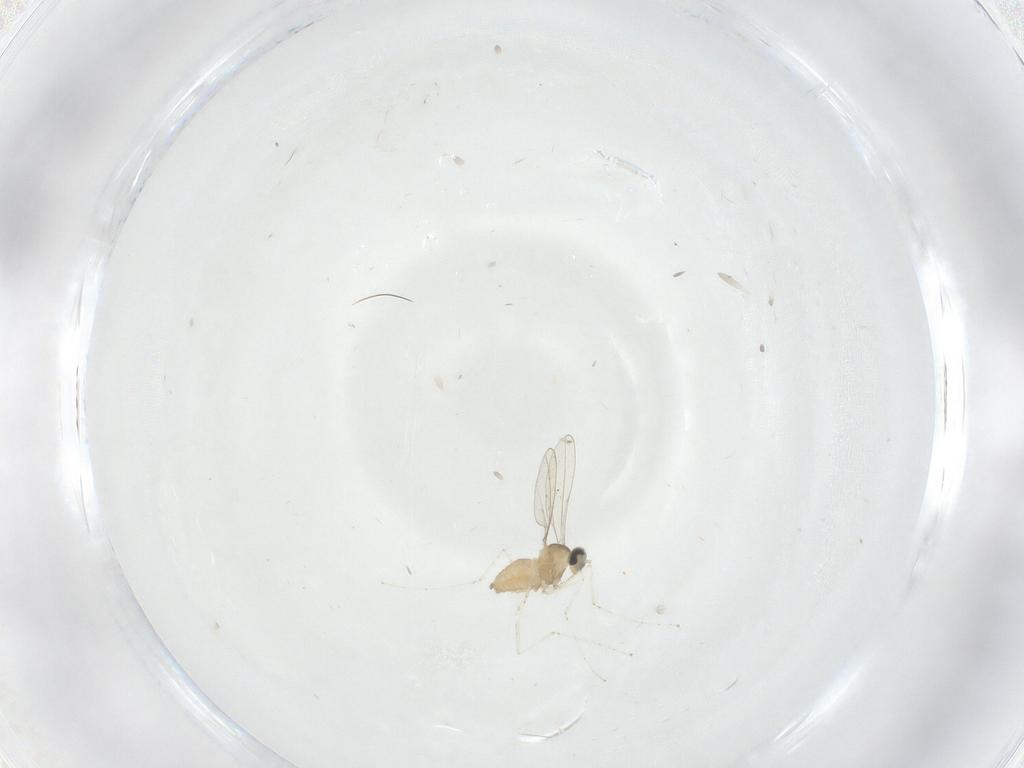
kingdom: Animalia
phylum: Arthropoda
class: Insecta
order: Diptera
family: Cecidomyiidae
